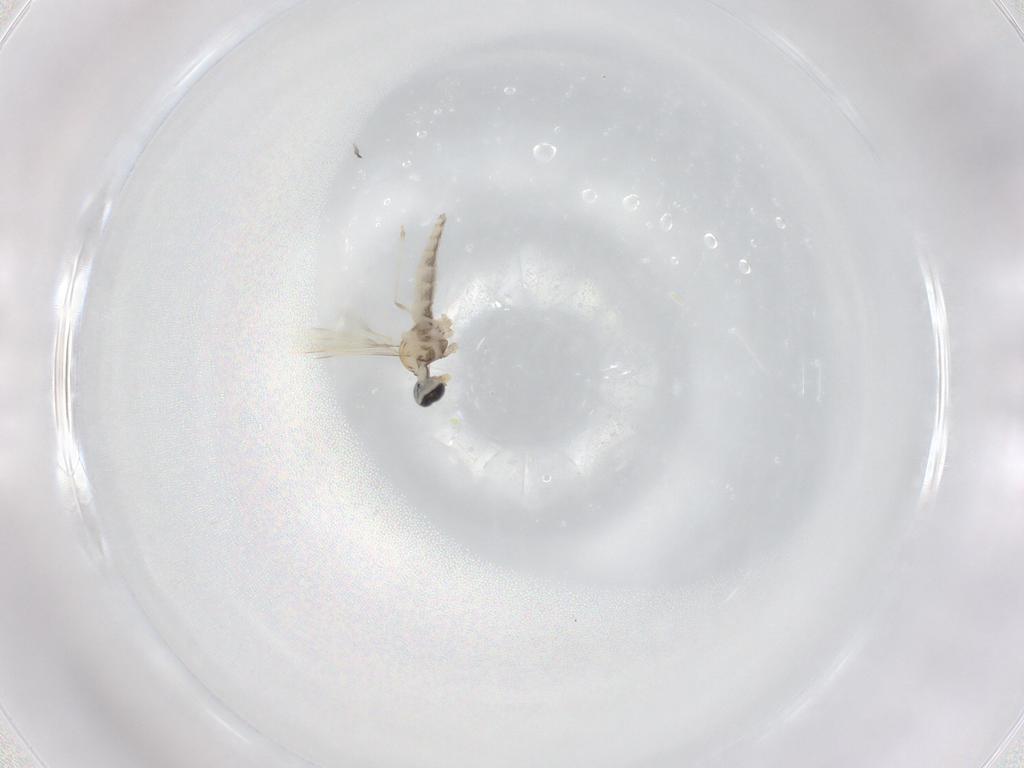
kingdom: Animalia
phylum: Arthropoda
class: Insecta
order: Diptera
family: Cecidomyiidae
